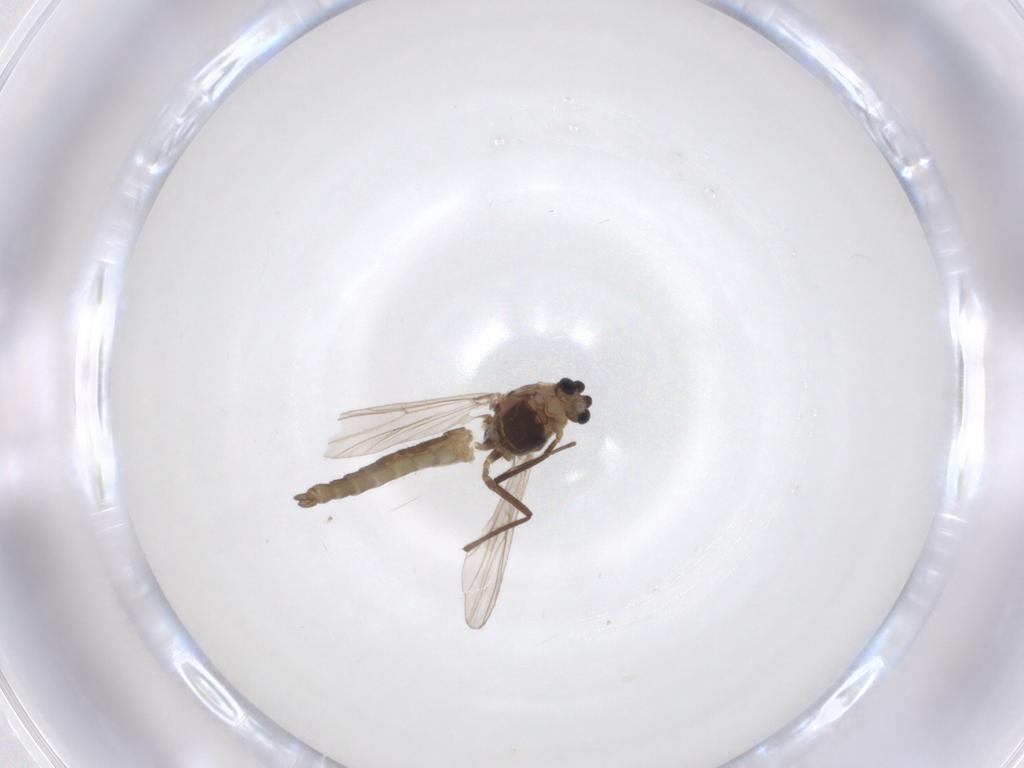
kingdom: Animalia
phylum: Arthropoda
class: Insecta
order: Diptera
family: Chironomidae
